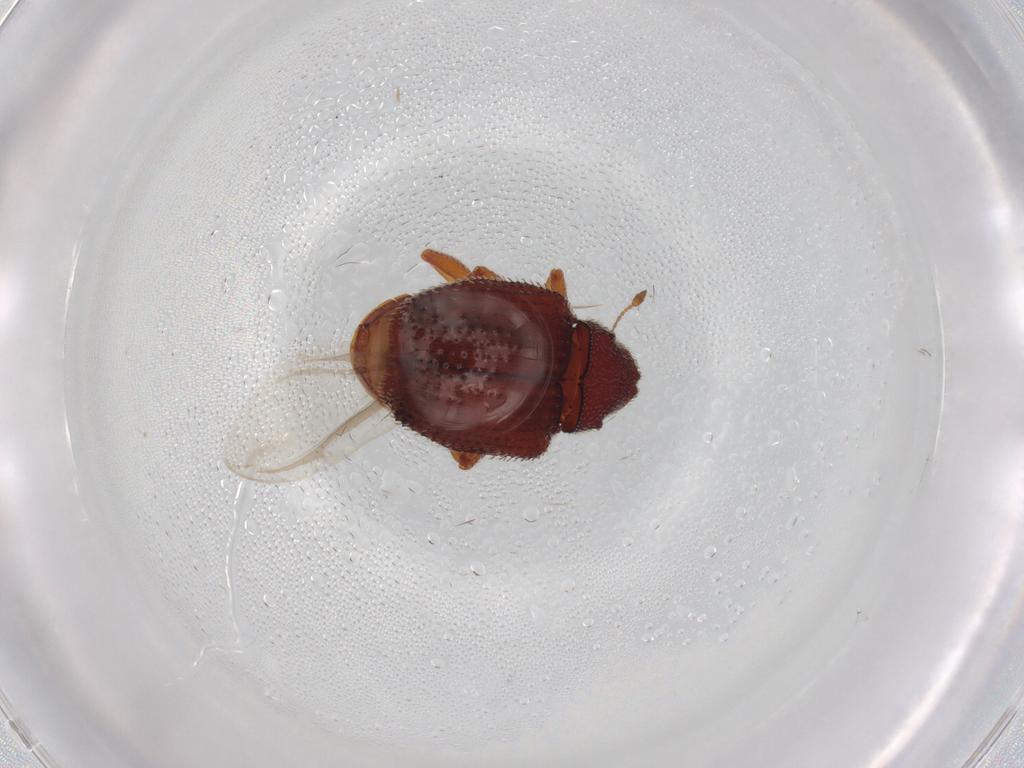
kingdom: Animalia
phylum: Arthropoda
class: Insecta
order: Coleoptera
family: Curculionidae
